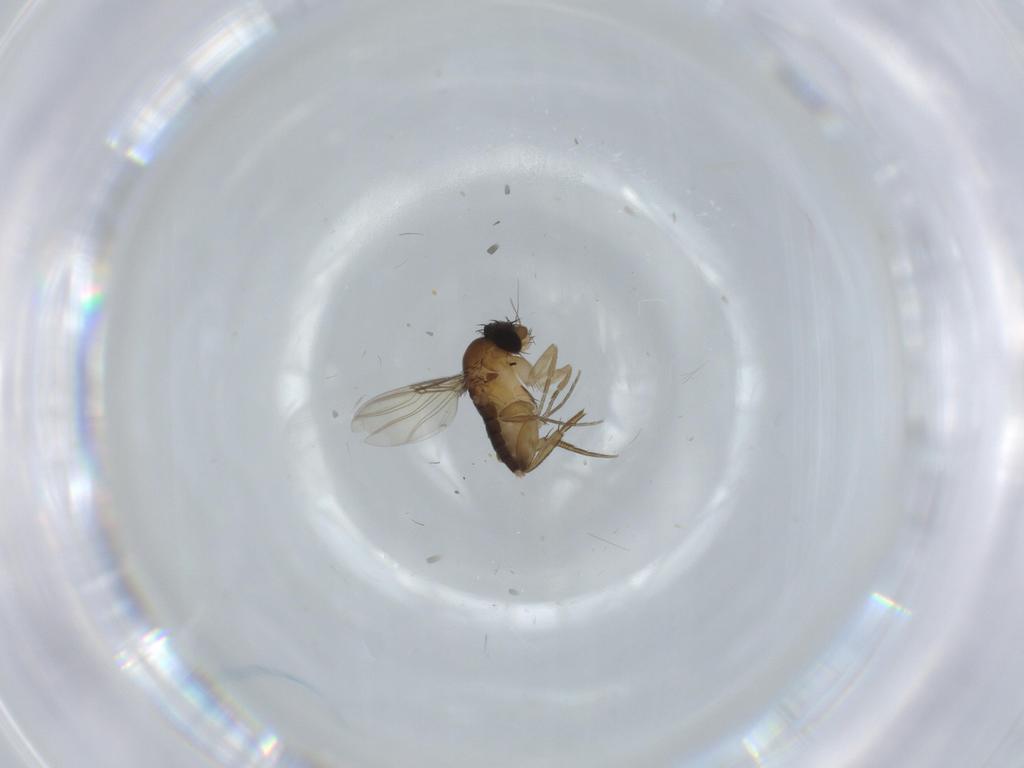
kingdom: Animalia
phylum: Arthropoda
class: Insecta
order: Diptera
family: Phoridae
